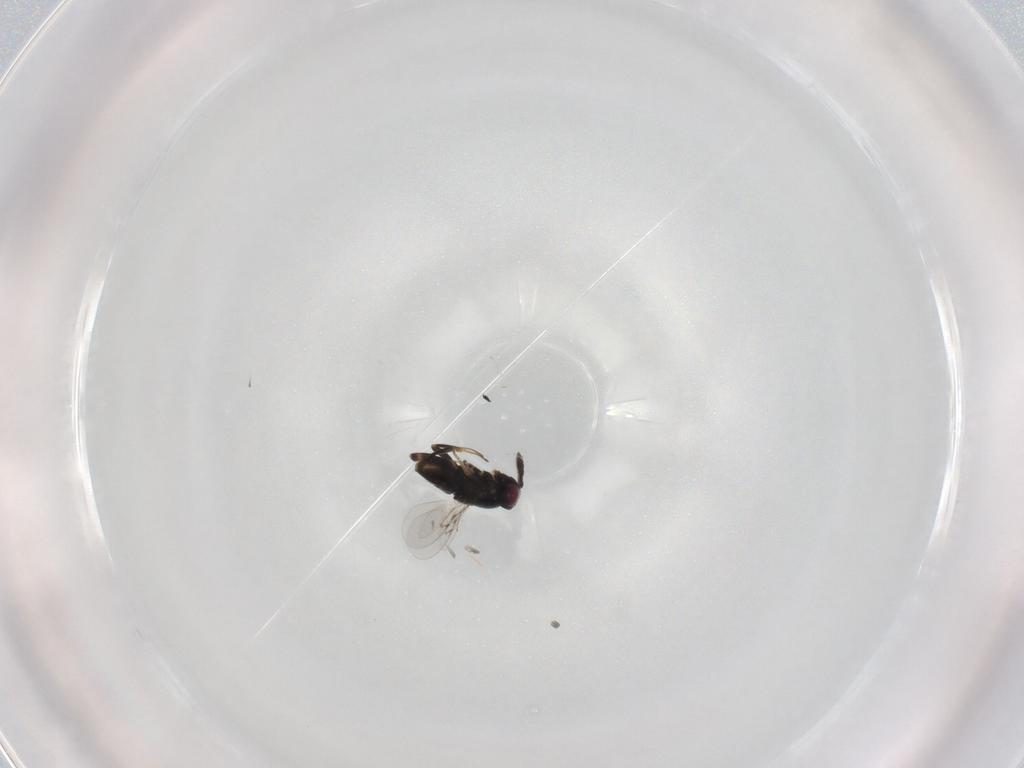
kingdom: Animalia
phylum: Arthropoda
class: Insecta
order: Hymenoptera
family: Encyrtidae
